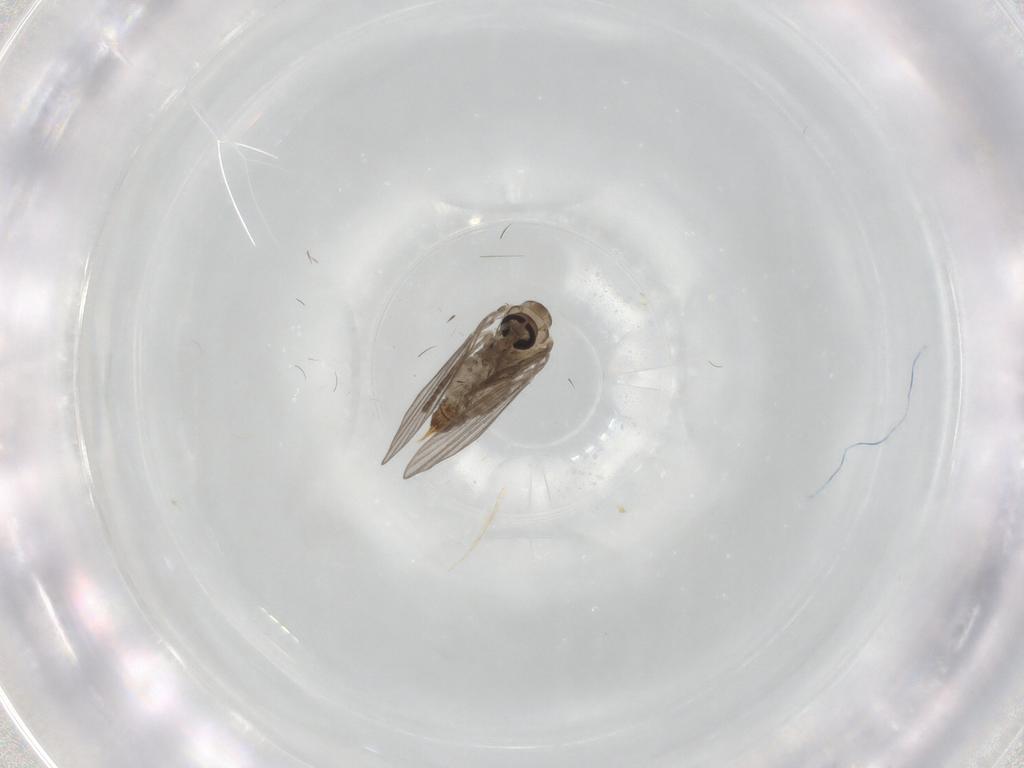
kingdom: Animalia
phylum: Arthropoda
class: Insecta
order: Diptera
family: Psychodidae
